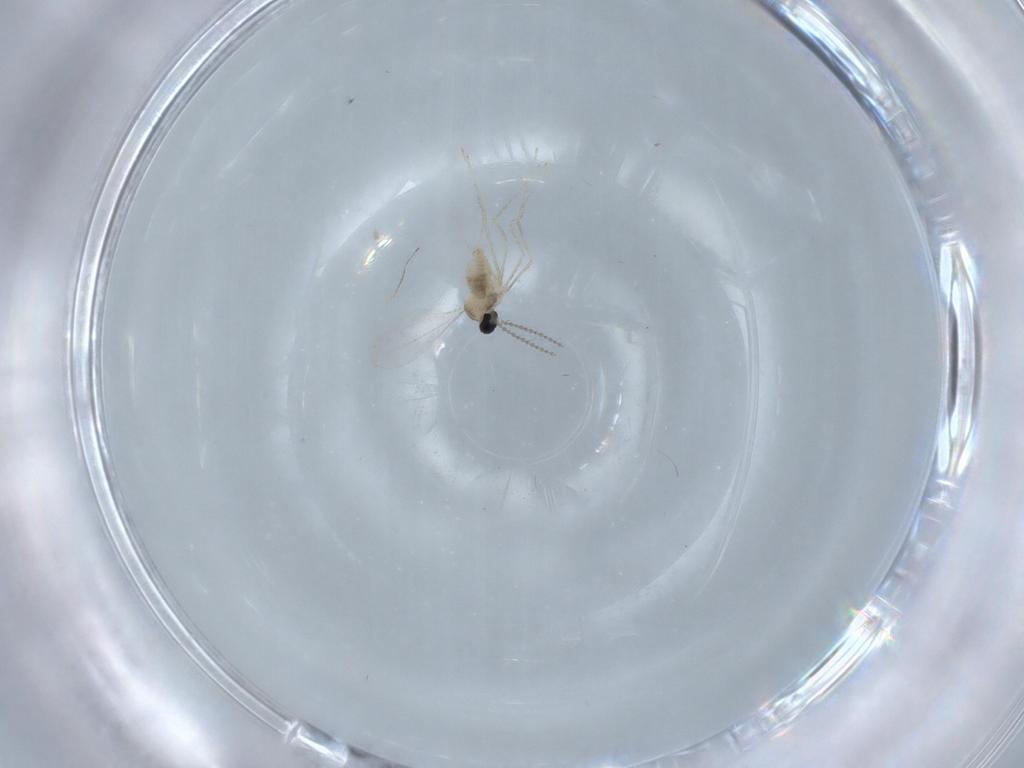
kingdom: Animalia
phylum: Arthropoda
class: Insecta
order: Diptera
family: Cecidomyiidae
